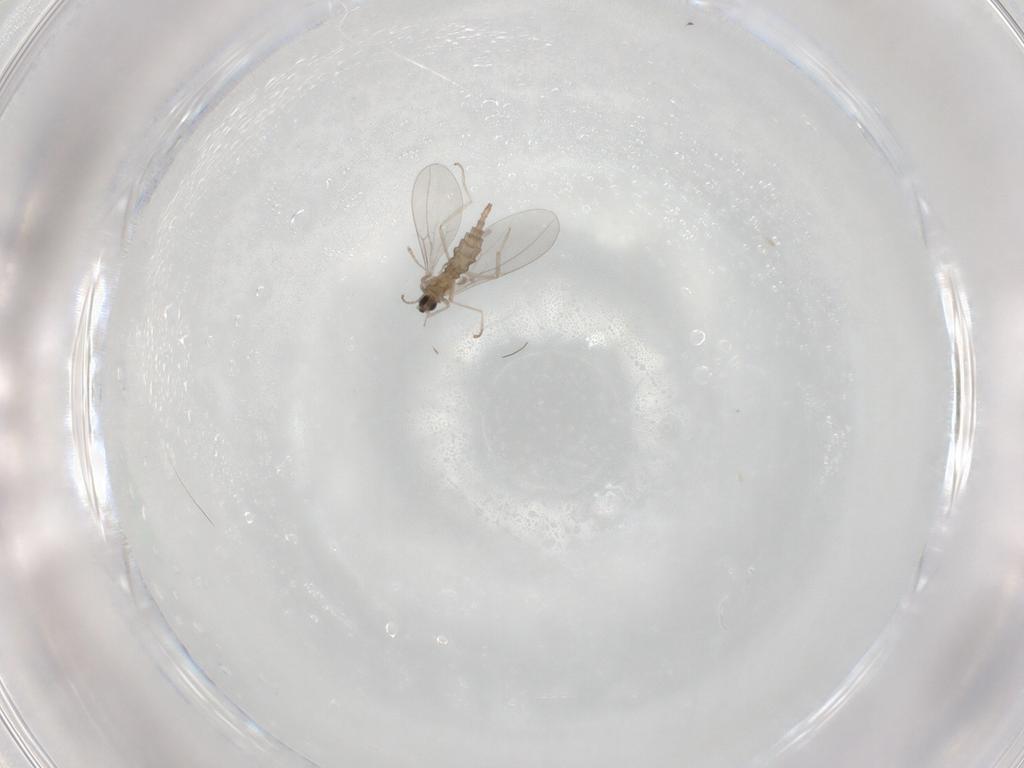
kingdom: Animalia
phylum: Arthropoda
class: Insecta
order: Diptera
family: Cecidomyiidae
